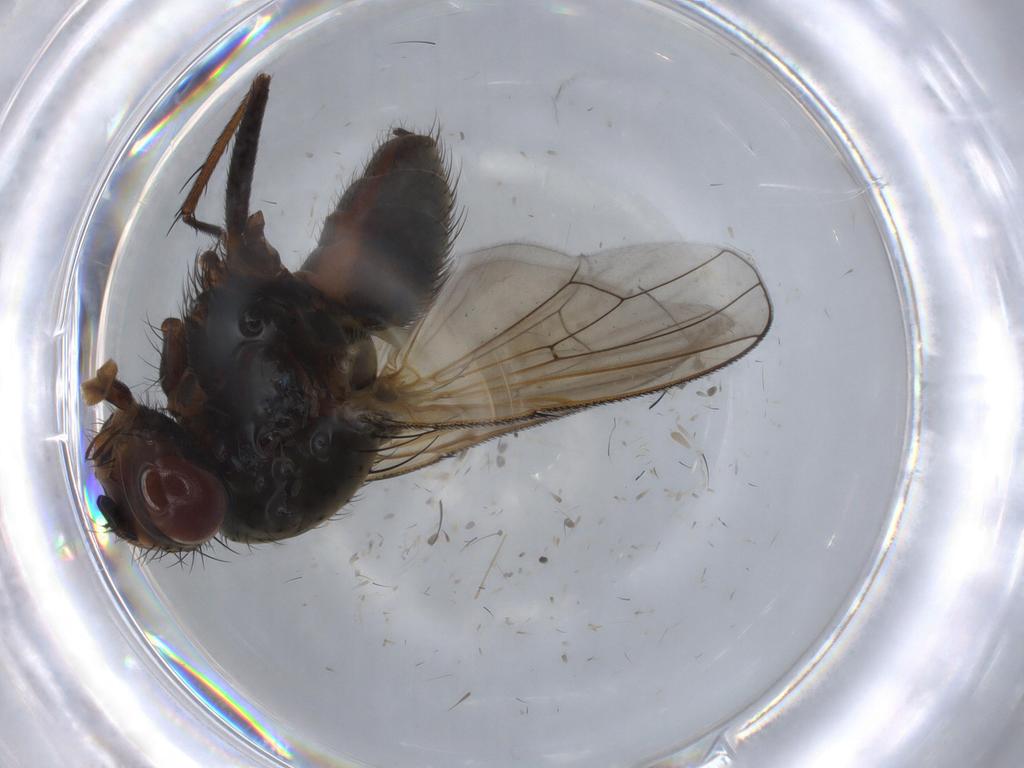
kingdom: Animalia
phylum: Arthropoda
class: Insecta
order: Diptera
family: Anthomyiidae
